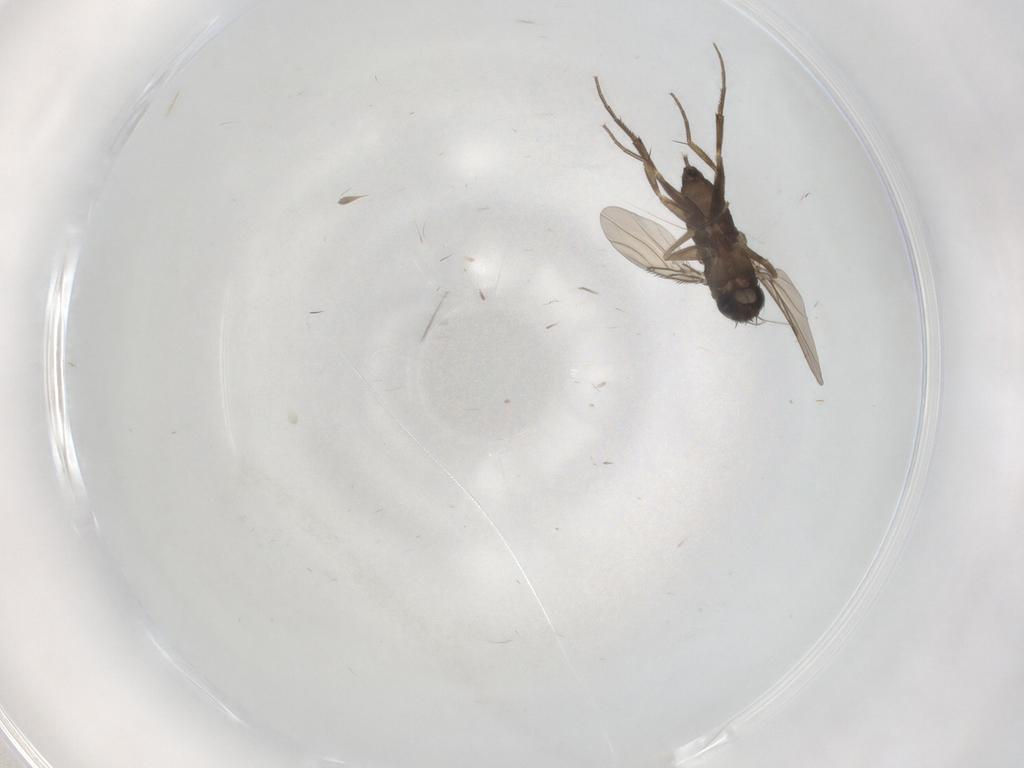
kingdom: Animalia
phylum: Arthropoda
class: Insecta
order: Diptera
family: Phoridae
